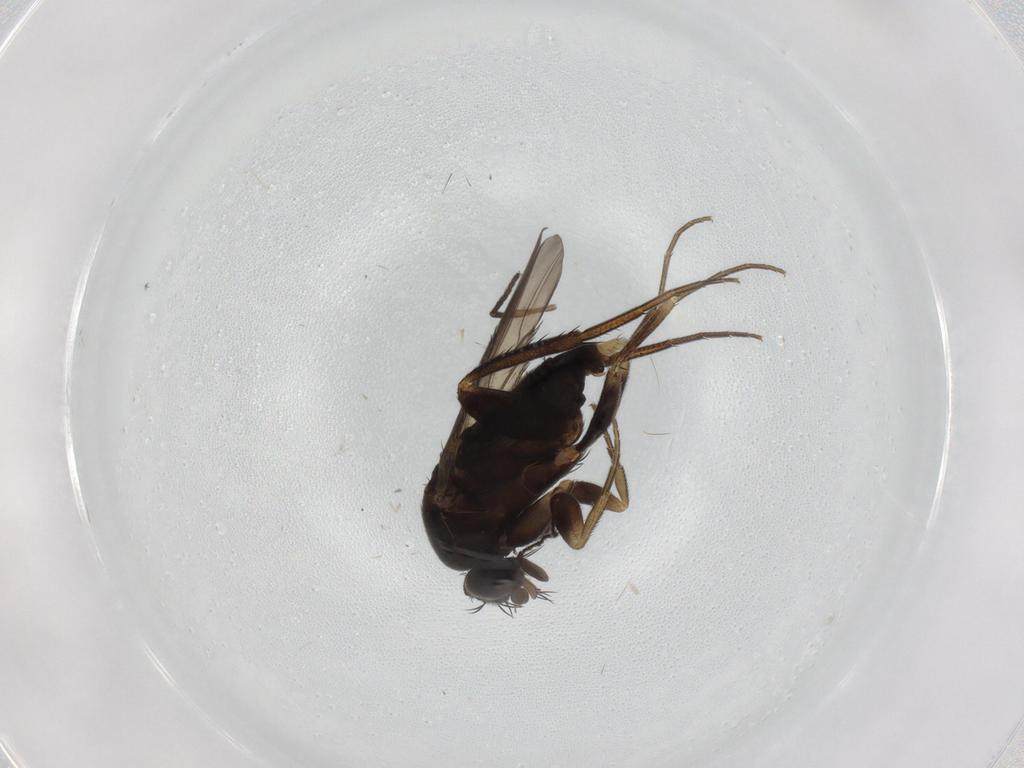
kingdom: Animalia
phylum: Arthropoda
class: Insecta
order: Diptera
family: Phoridae
